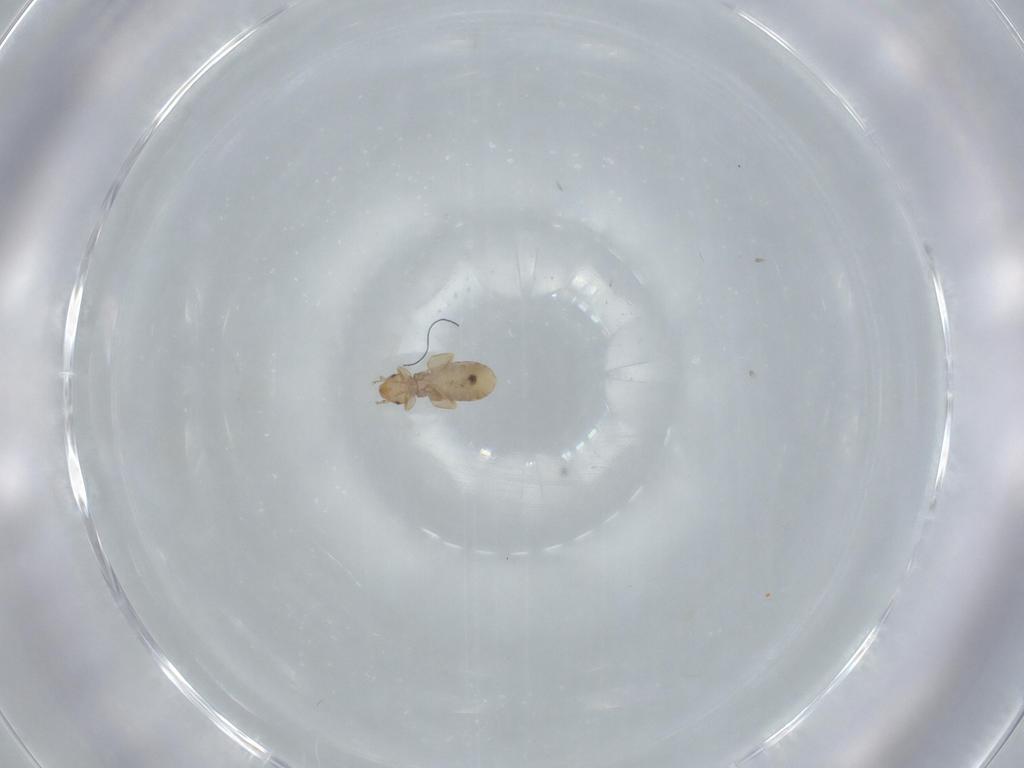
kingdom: Animalia
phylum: Arthropoda
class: Insecta
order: Psocodea
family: Liposcelididae
